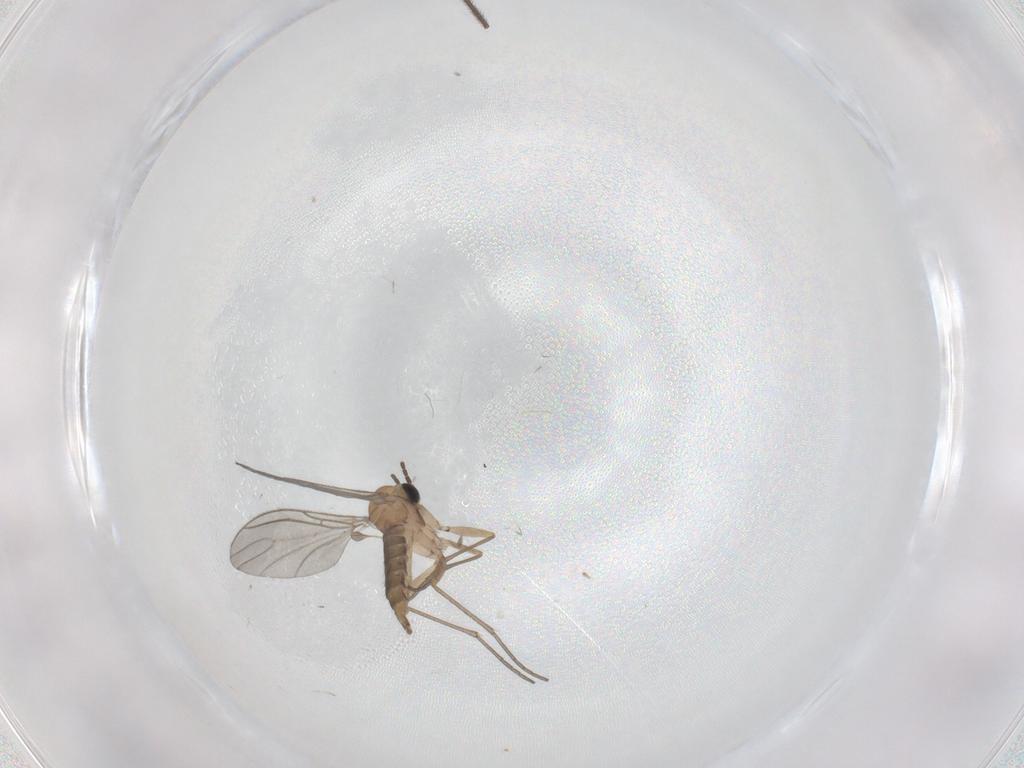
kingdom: Animalia
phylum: Arthropoda
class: Insecta
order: Diptera
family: Sciaridae
